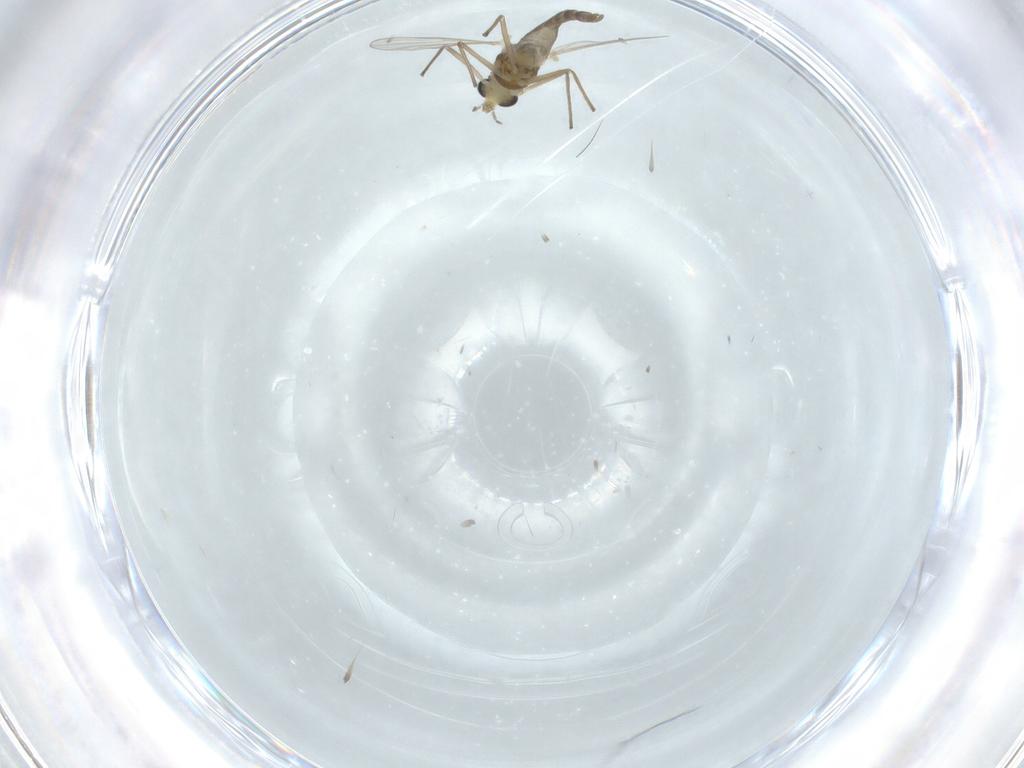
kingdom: Animalia
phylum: Arthropoda
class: Insecta
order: Diptera
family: Chironomidae
